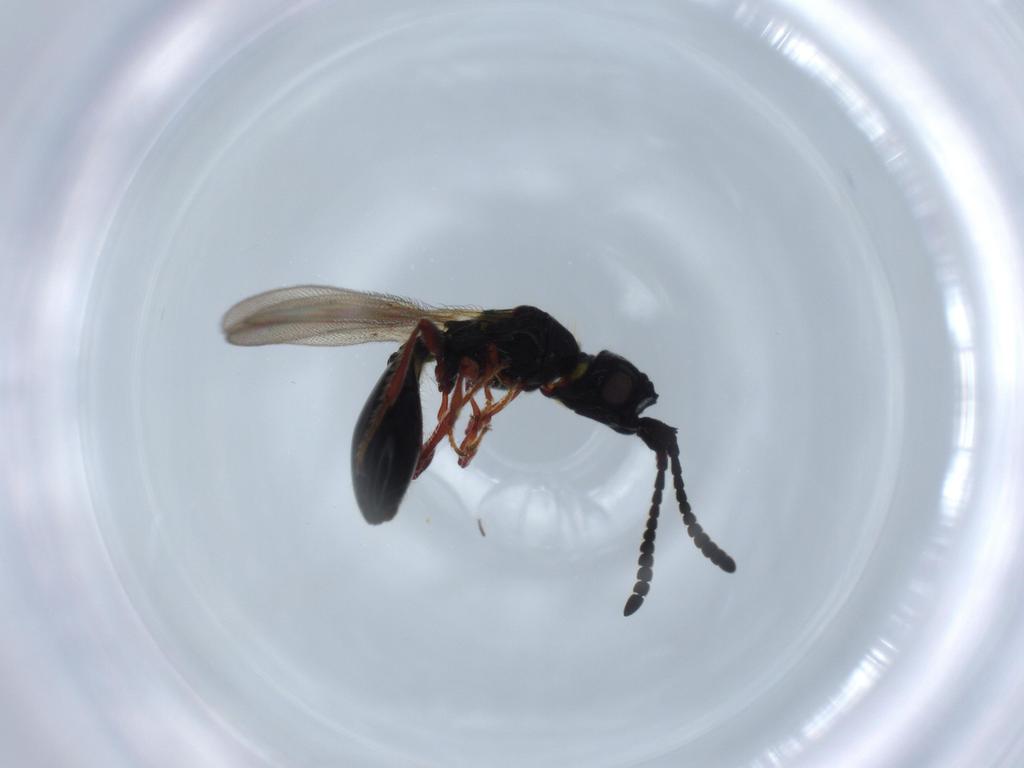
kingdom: Animalia
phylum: Arthropoda
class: Insecta
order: Hymenoptera
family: Diapriidae
